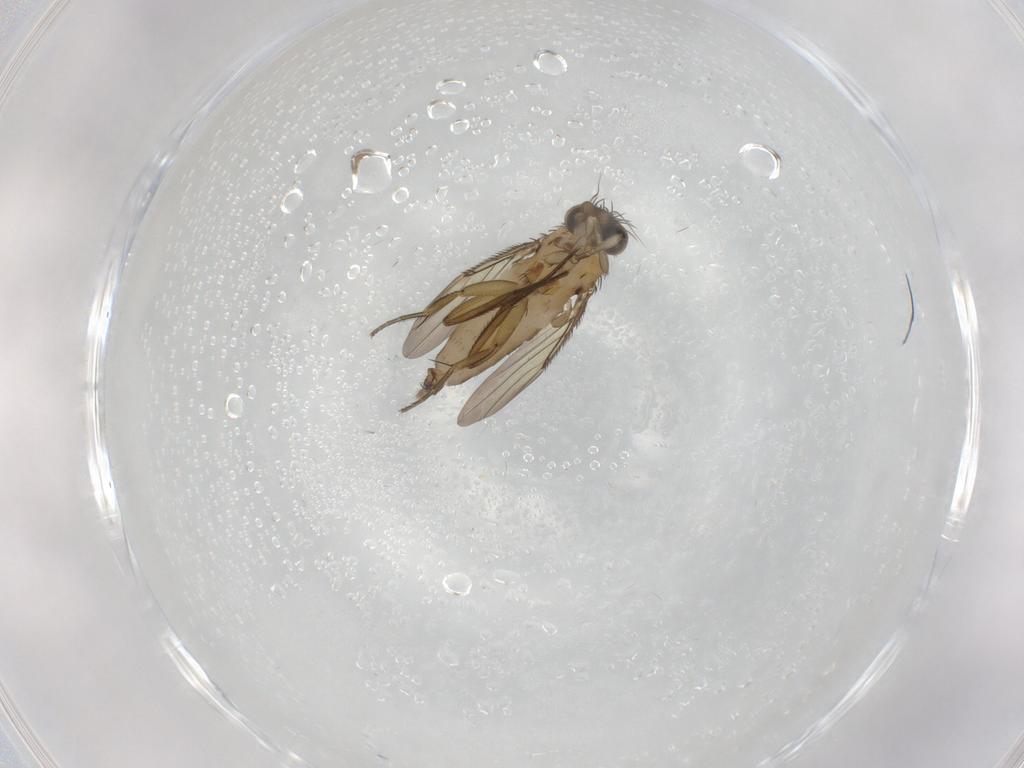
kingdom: Animalia
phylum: Arthropoda
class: Insecta
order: Diptera
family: Phoridae
